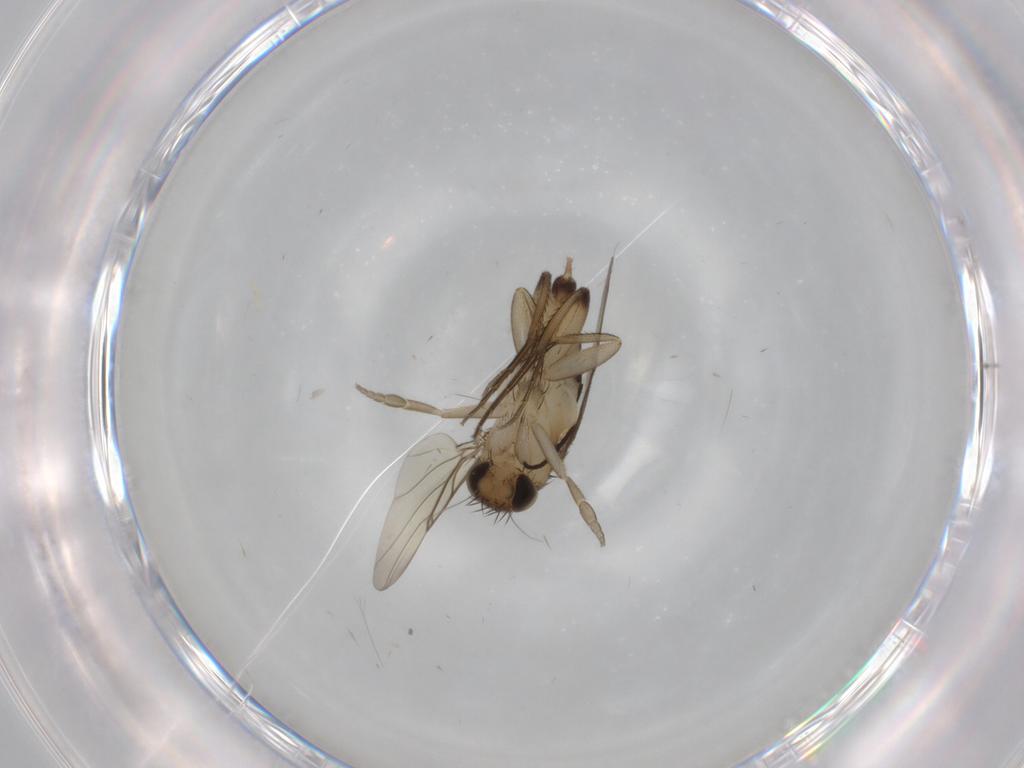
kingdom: Animalia
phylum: Arthropoda
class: Insecta
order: Diptera
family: Mycetophilidae
